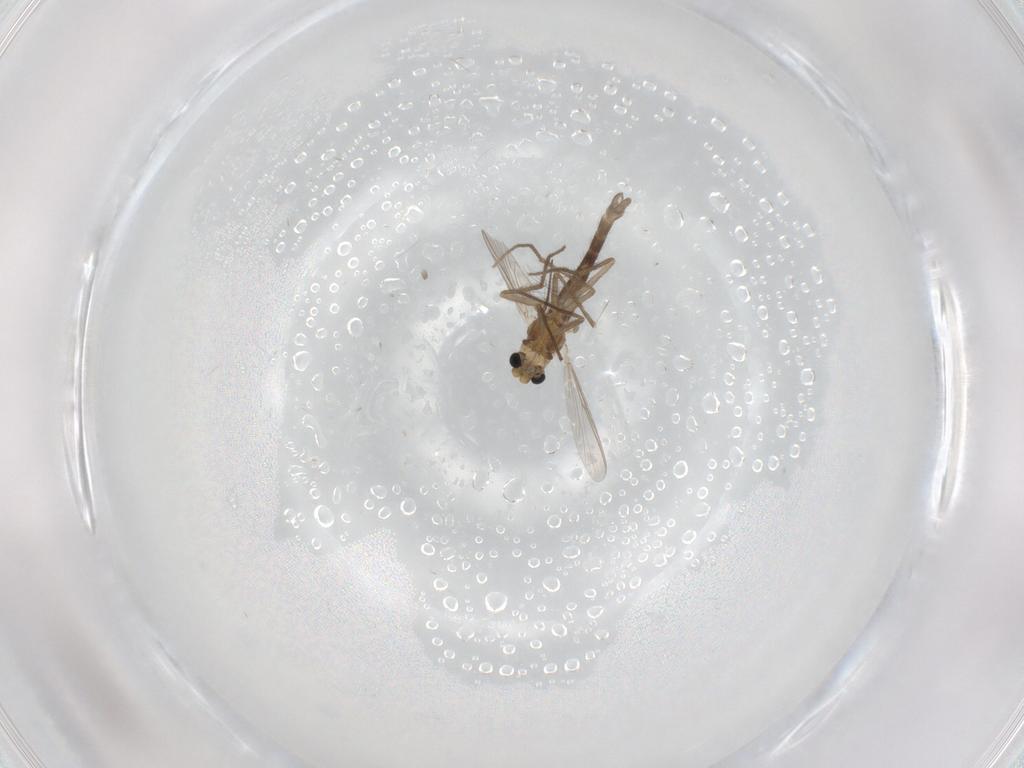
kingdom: Animalia
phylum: Arthropoda
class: Insecta
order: Diptera
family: Chironomidae
